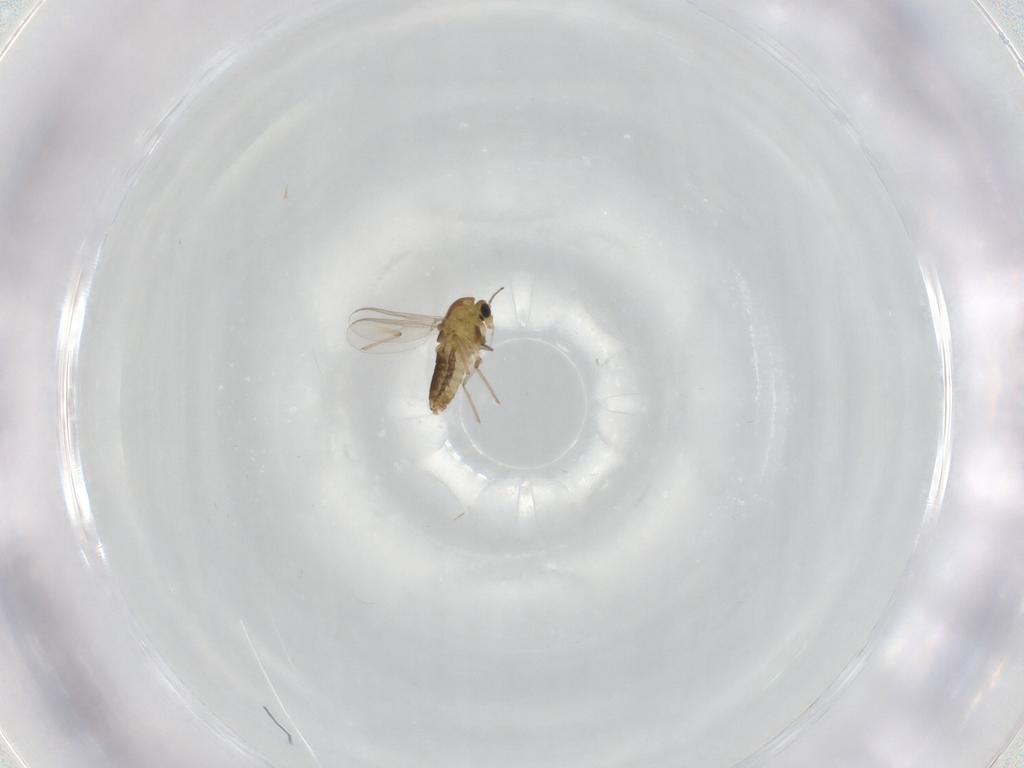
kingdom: Animalia
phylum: Arthropoda
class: Insecta
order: Diptera
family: Chironomidae
